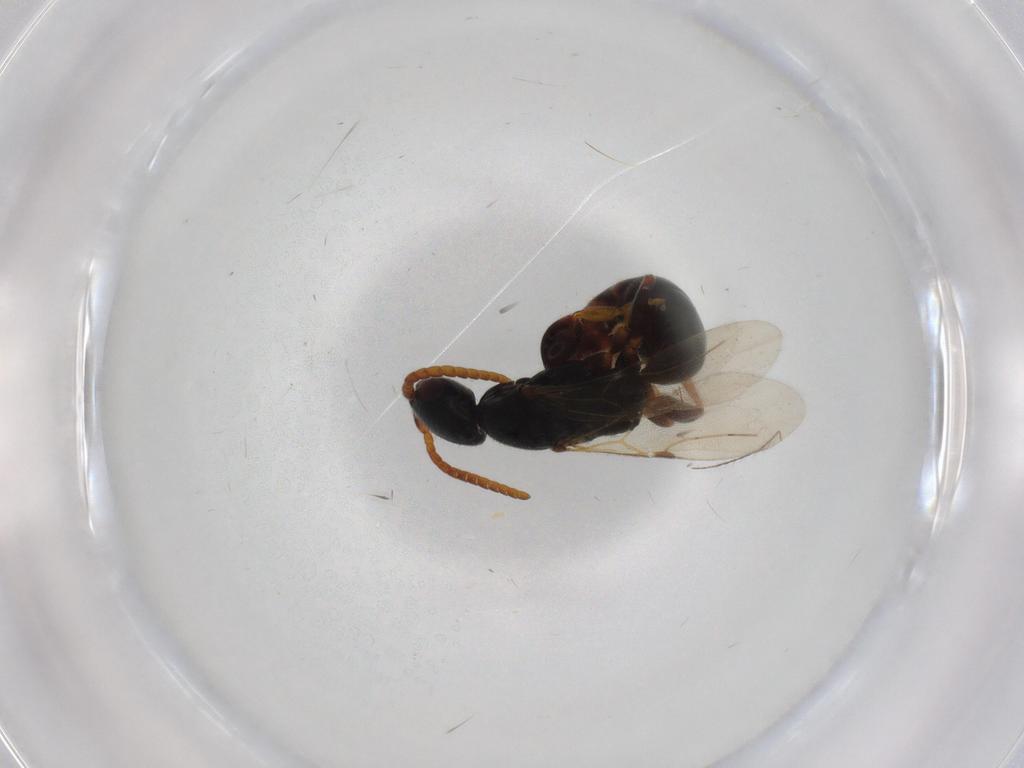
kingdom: Animalia
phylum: Arthropoda
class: Insecta
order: Hymenoptera
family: Bethylidae
